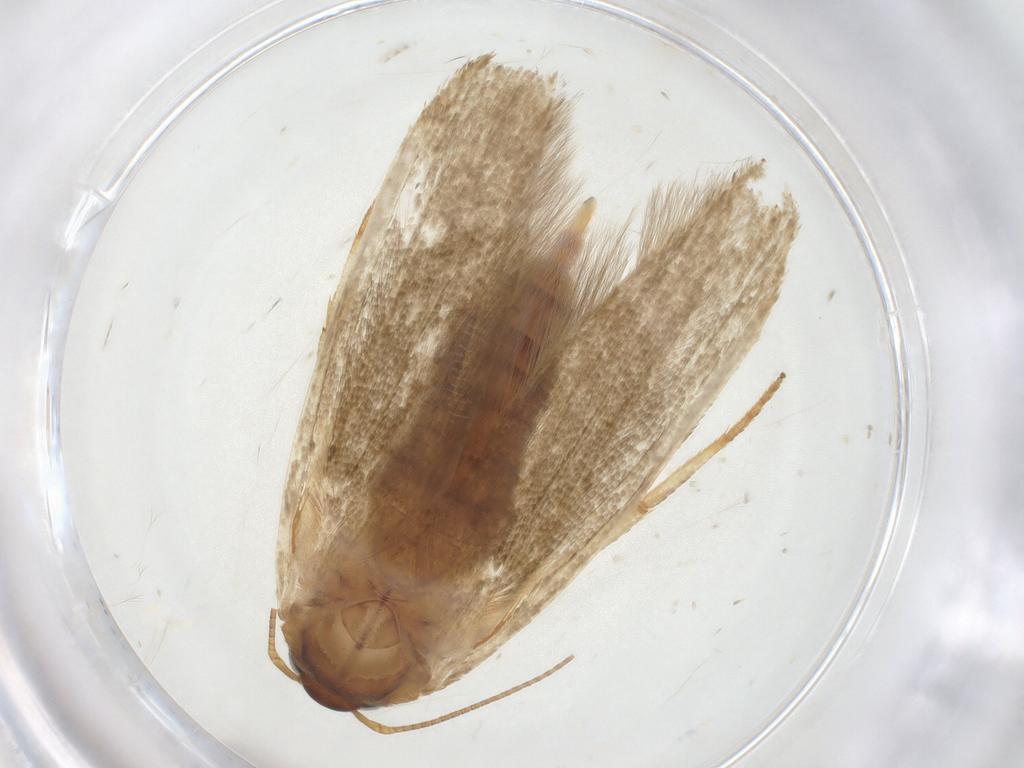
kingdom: Animalia
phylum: Arthropoda
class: Insecta
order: Lepidoptera
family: Blastobasidae
